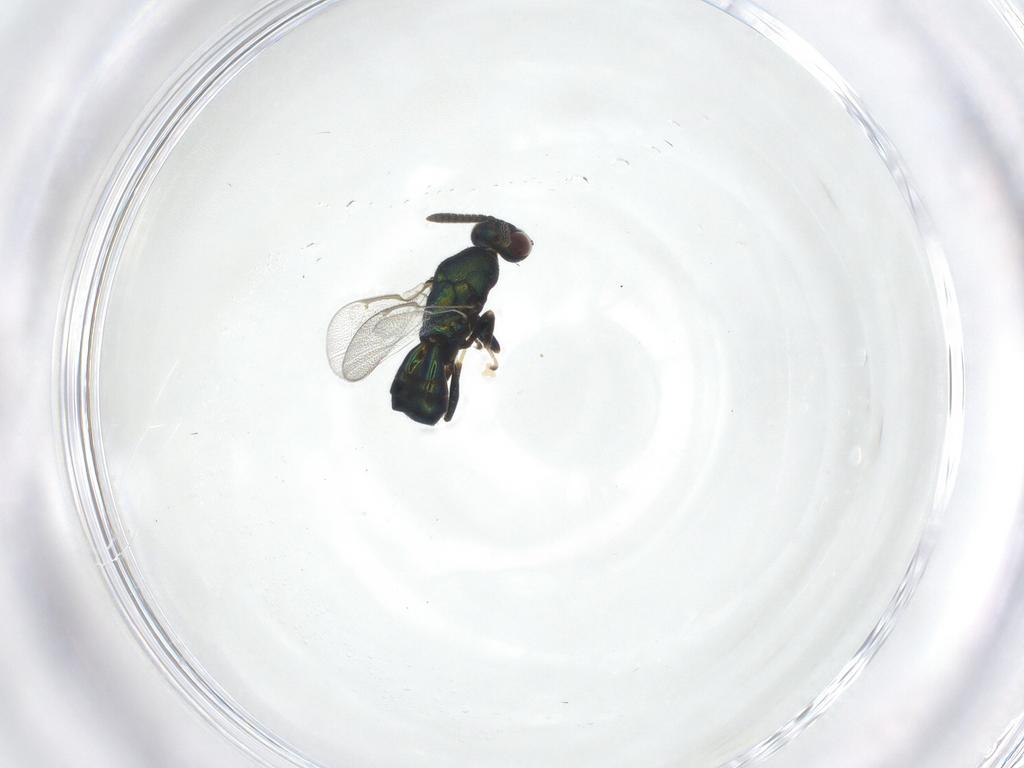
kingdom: Animalia
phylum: Arthropoda
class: Insecta
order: Hymenoptera
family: Torymidae
